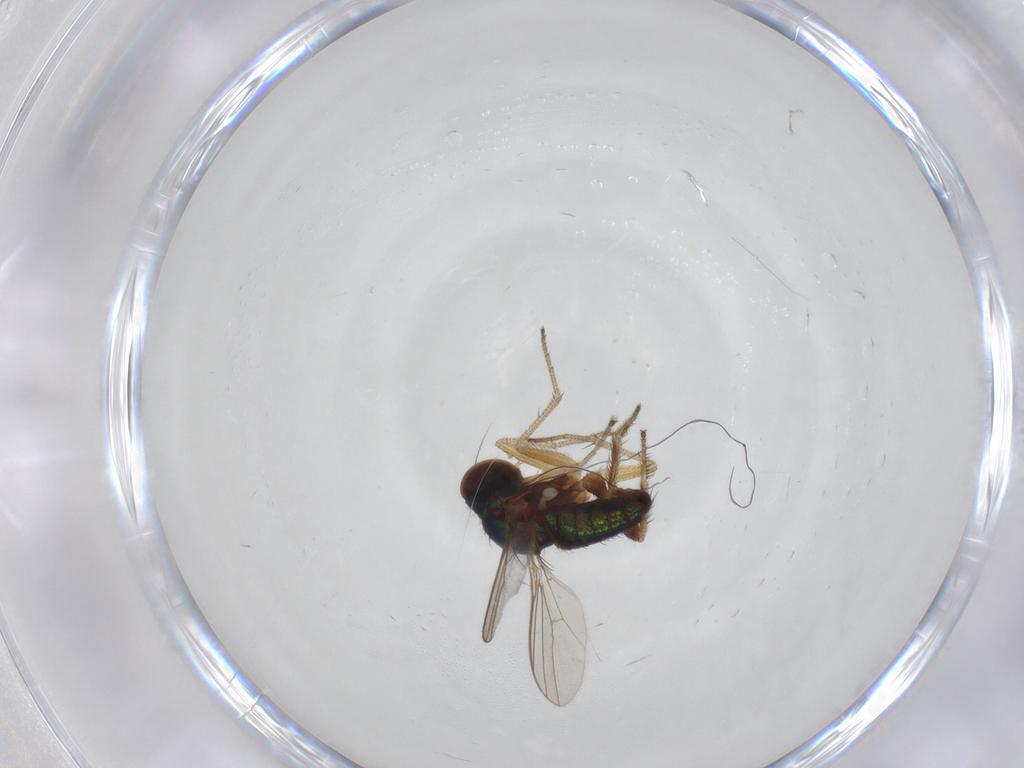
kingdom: Animalia
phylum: Arthropoda
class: Insecta
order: Diptera
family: Dolichopodidae
